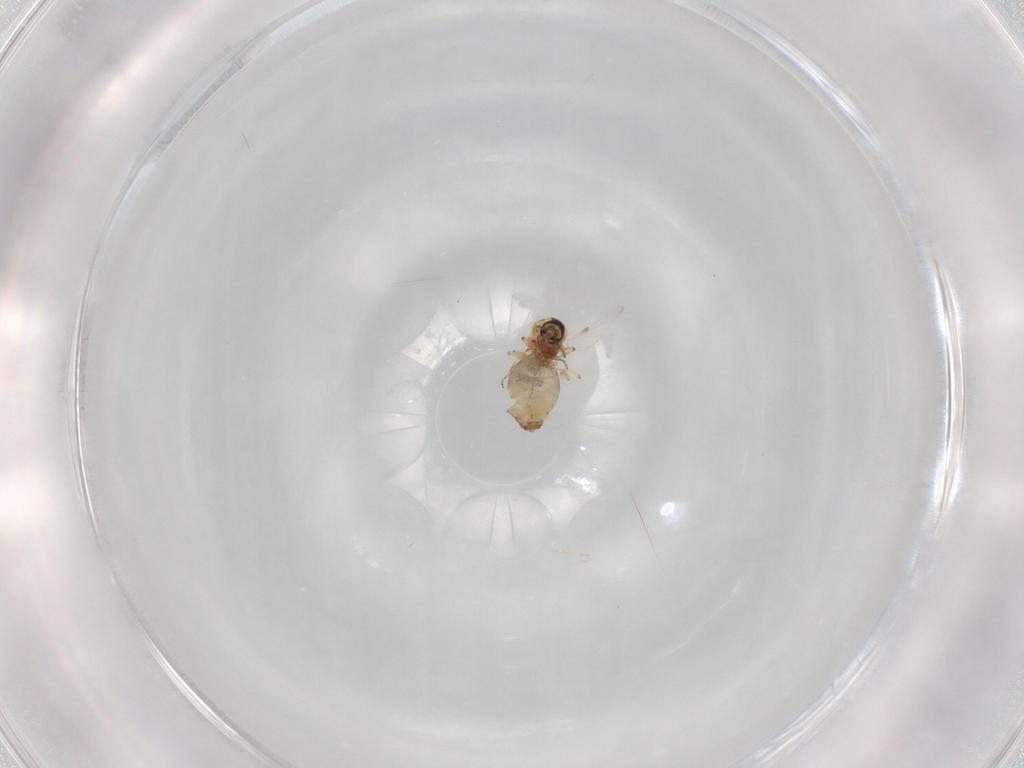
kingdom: Animalia
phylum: Arthropoda
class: Insecta
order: Diptera
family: Ceratopogonidae
